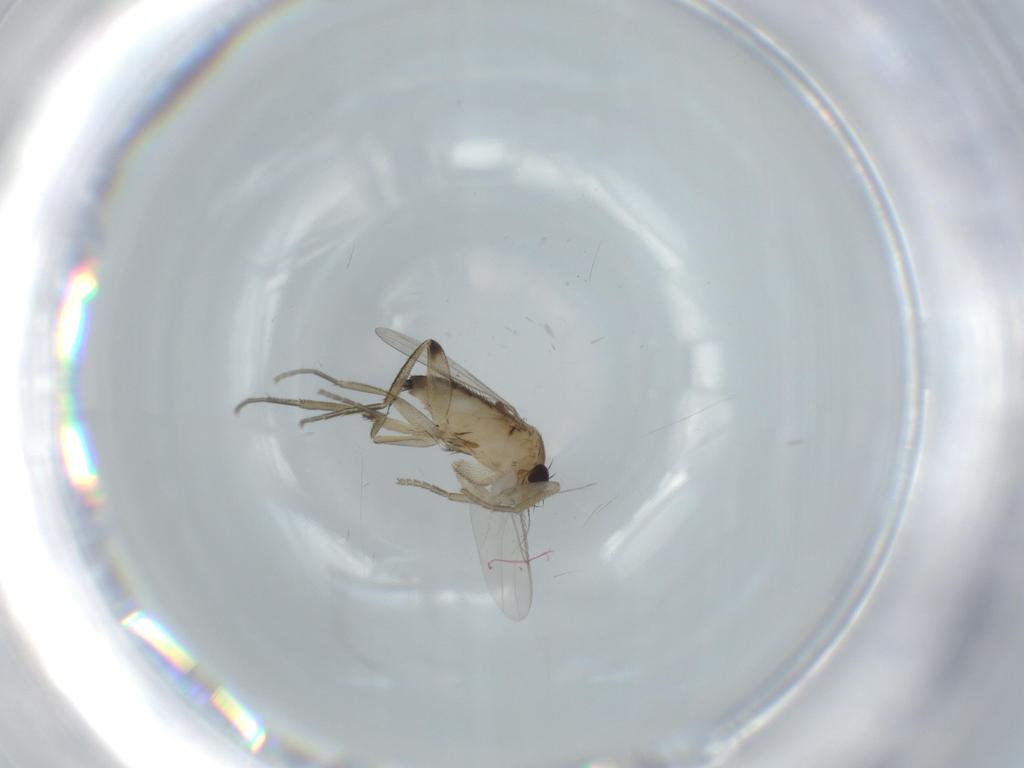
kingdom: Animalia
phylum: Arthropoda
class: Insecta
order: Diptera
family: Phoridae
